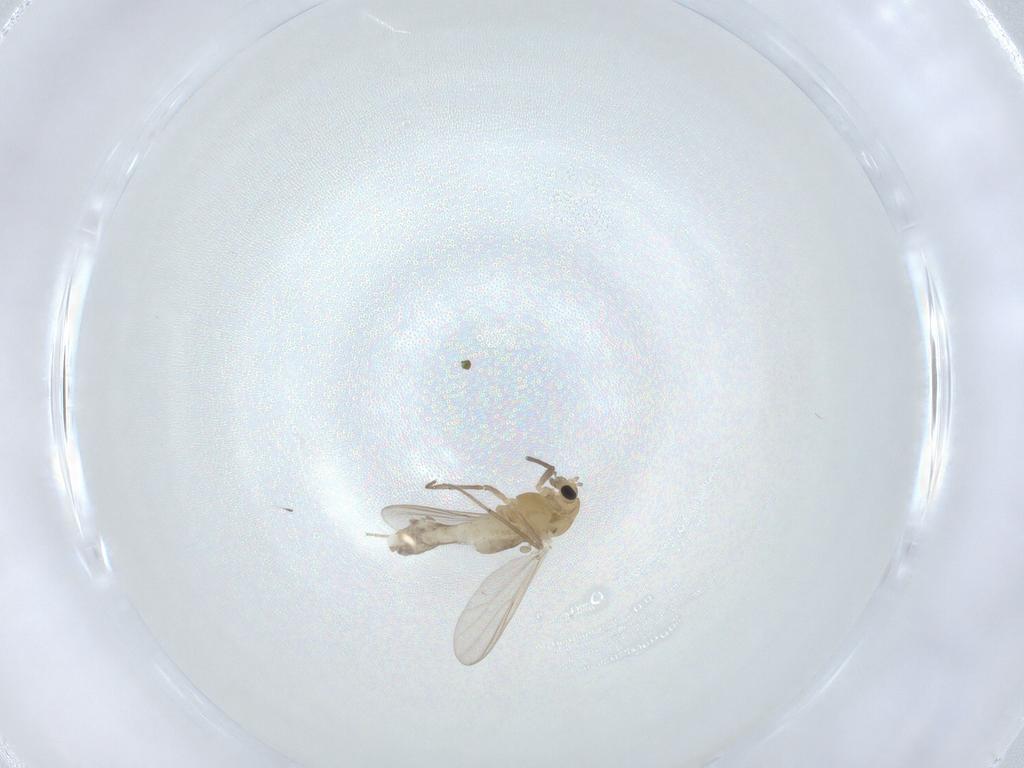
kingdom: Animalia
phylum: Arthropoda
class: Insecta
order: Diptera
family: Chironomidae
